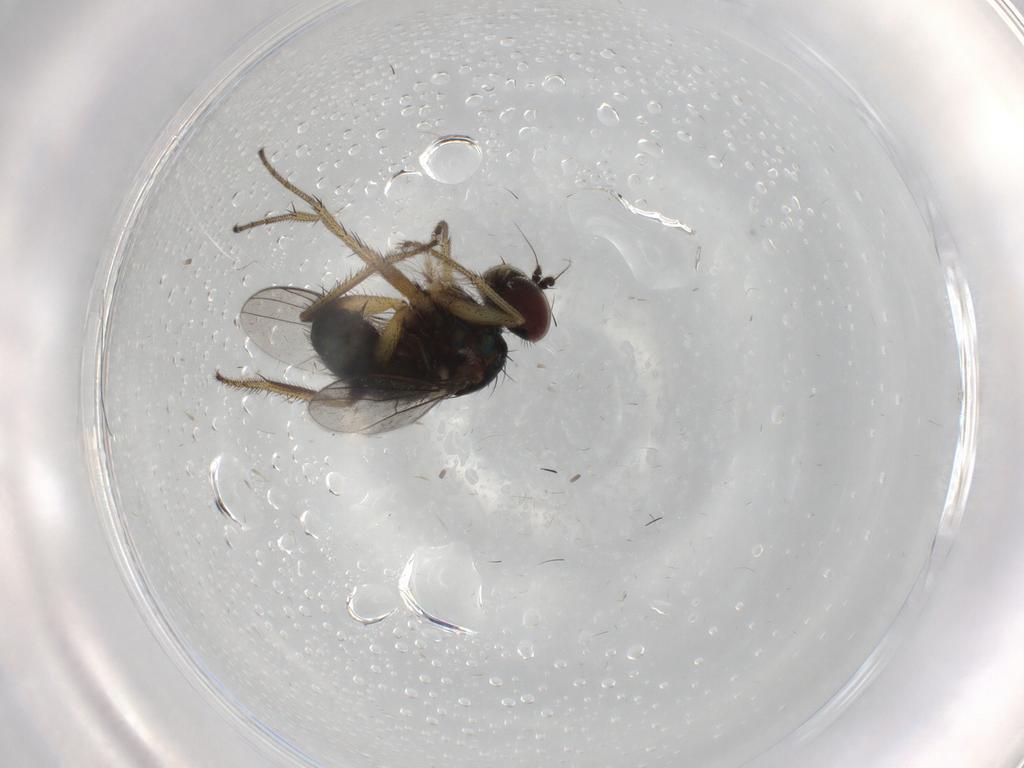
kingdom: Animalia
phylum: Arthropoda
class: Insecta
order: Diptera
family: Dolichopodidae
